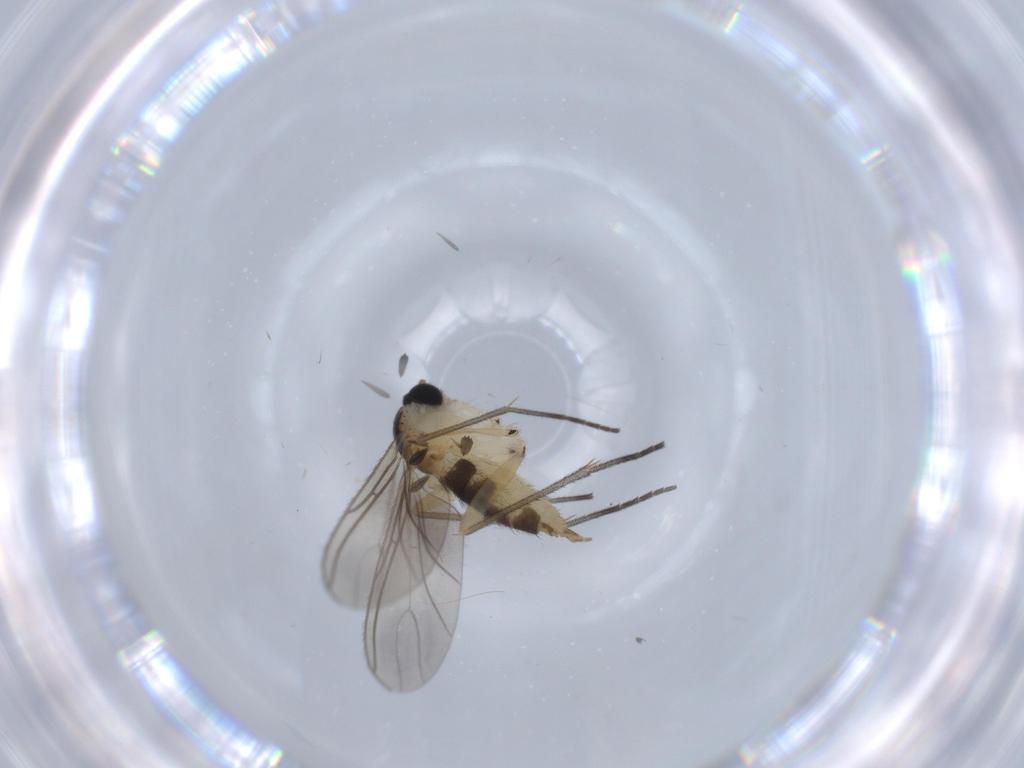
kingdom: Animalia
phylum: Arthropoda
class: Insecta
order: Diptera
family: Sciaridae
